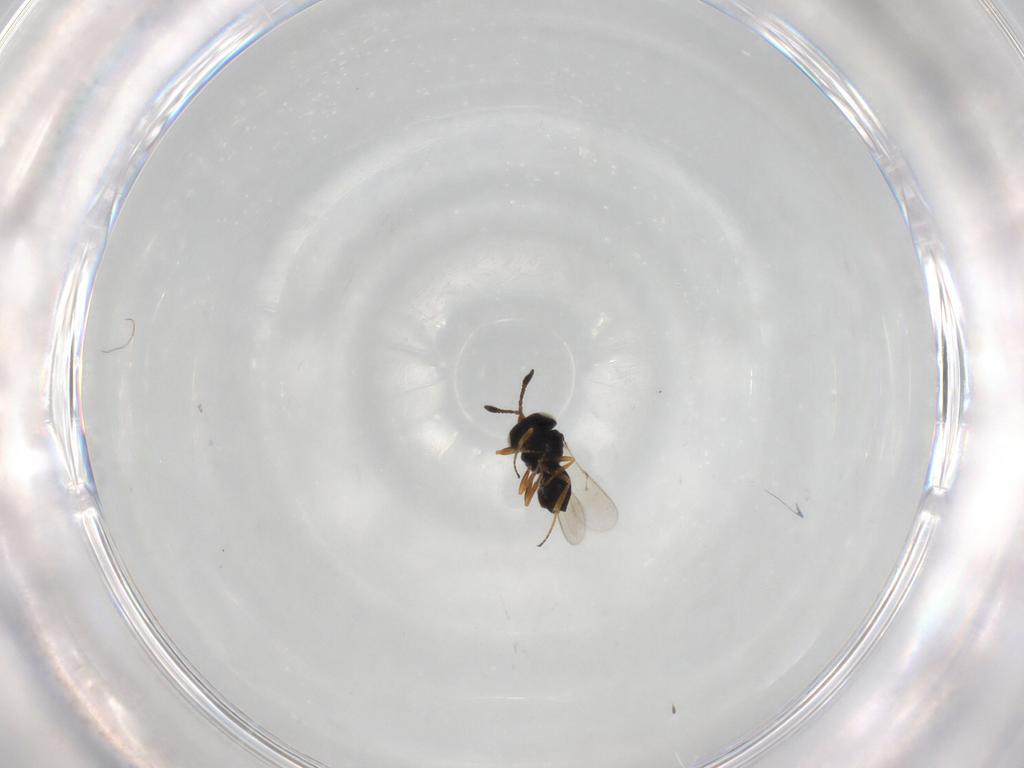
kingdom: Animalia
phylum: Arthropoda
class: Insecta
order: Hymenoptera
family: Scelionidae
